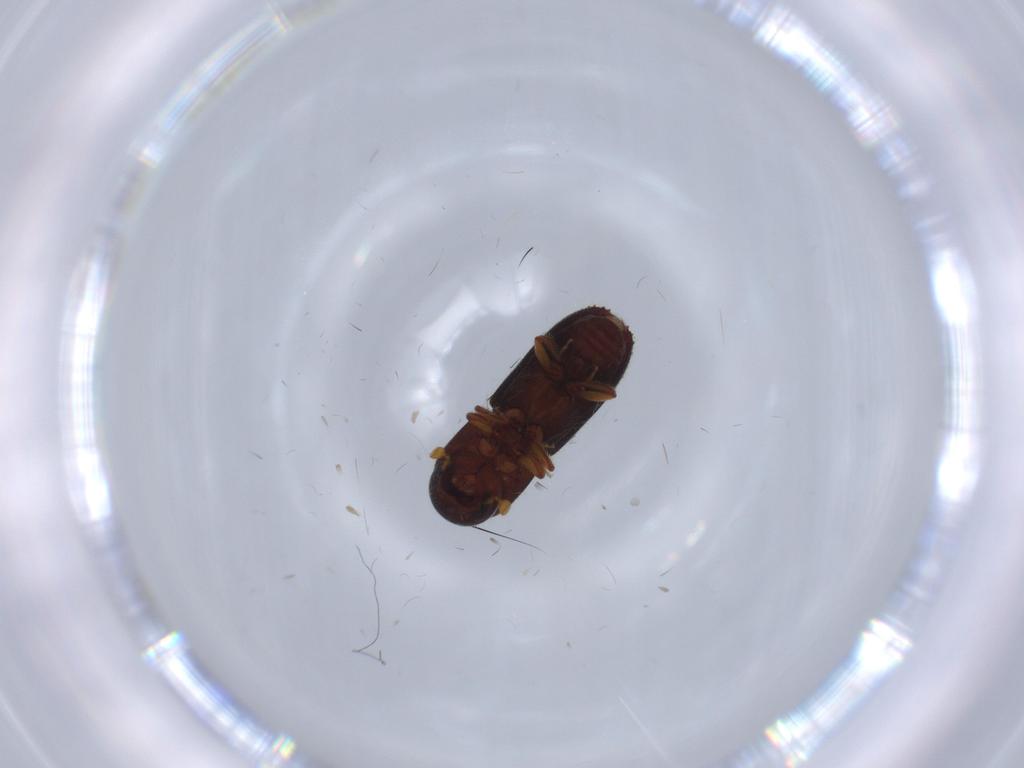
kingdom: Animalia
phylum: Arthropoda
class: Insecta
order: Coleoptera
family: Curculionidae
